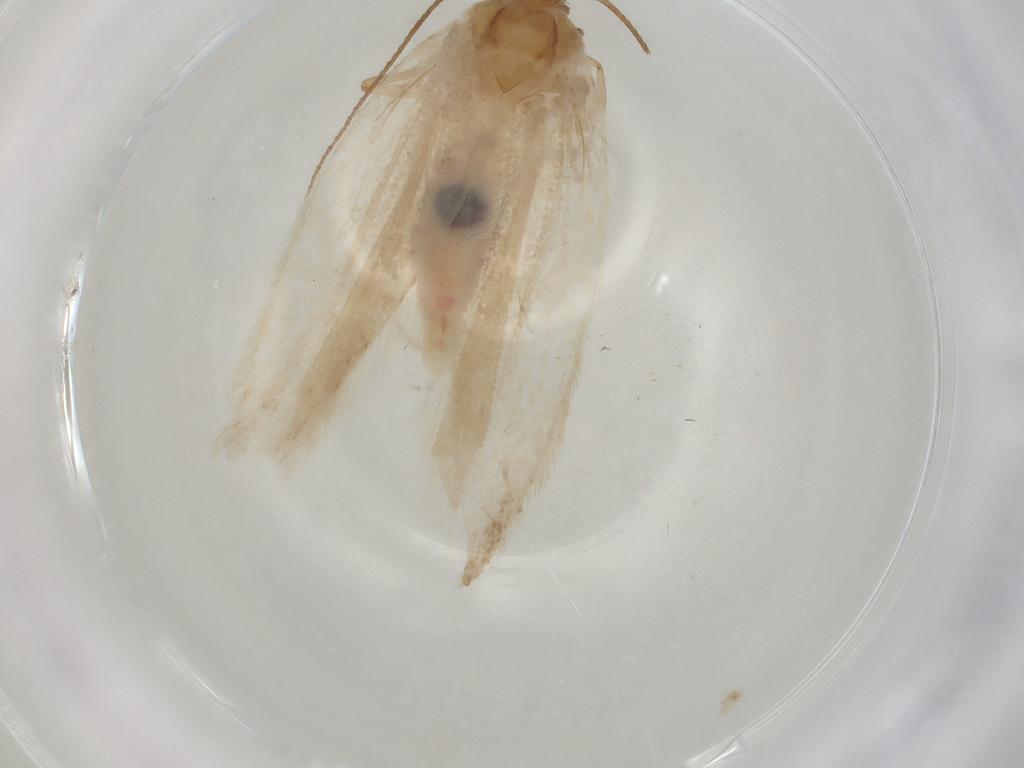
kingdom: Animalia
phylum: Arthropoda
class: Insecta
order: Lepidoptera
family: Gelechiidae
